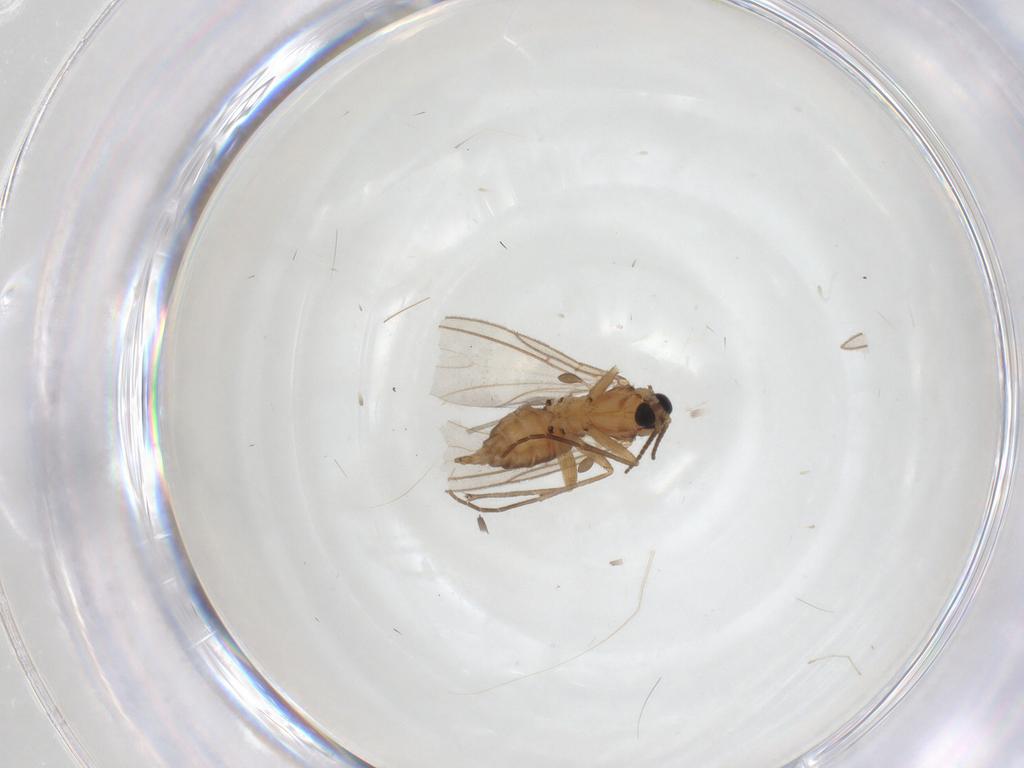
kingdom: Animalia
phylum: Arthropoda
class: Insecta
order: Diptera
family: Sciaridae
